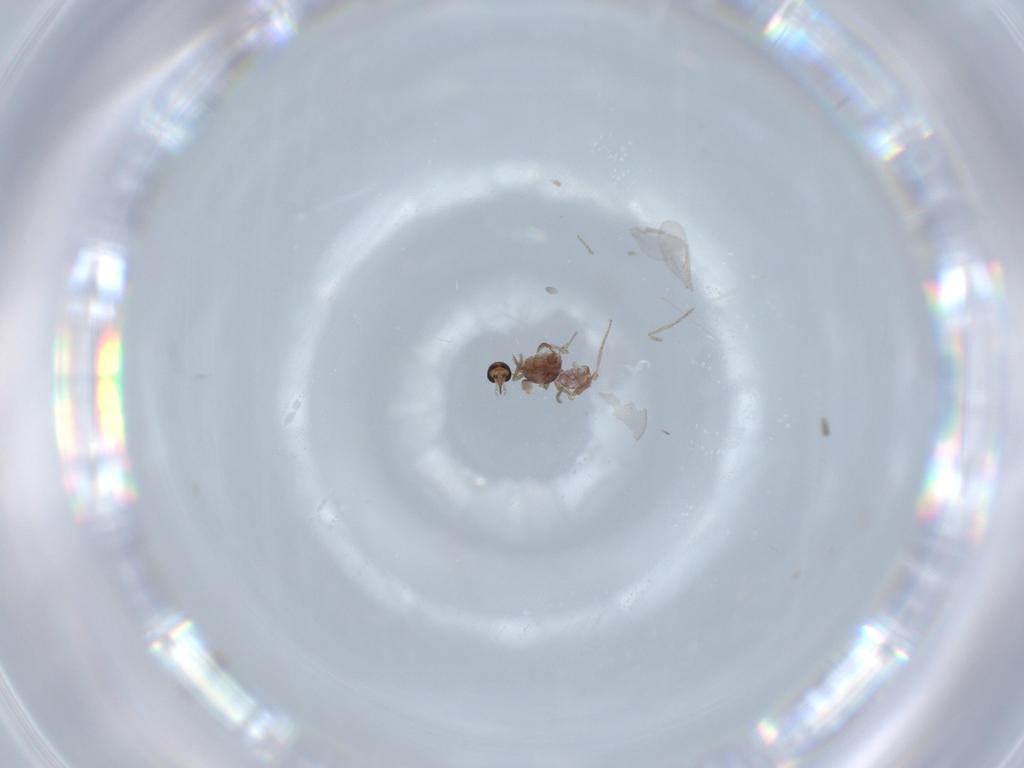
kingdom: Animalia
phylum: Arthropoda
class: Insecta
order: Diptera
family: Ceratopogonidae
